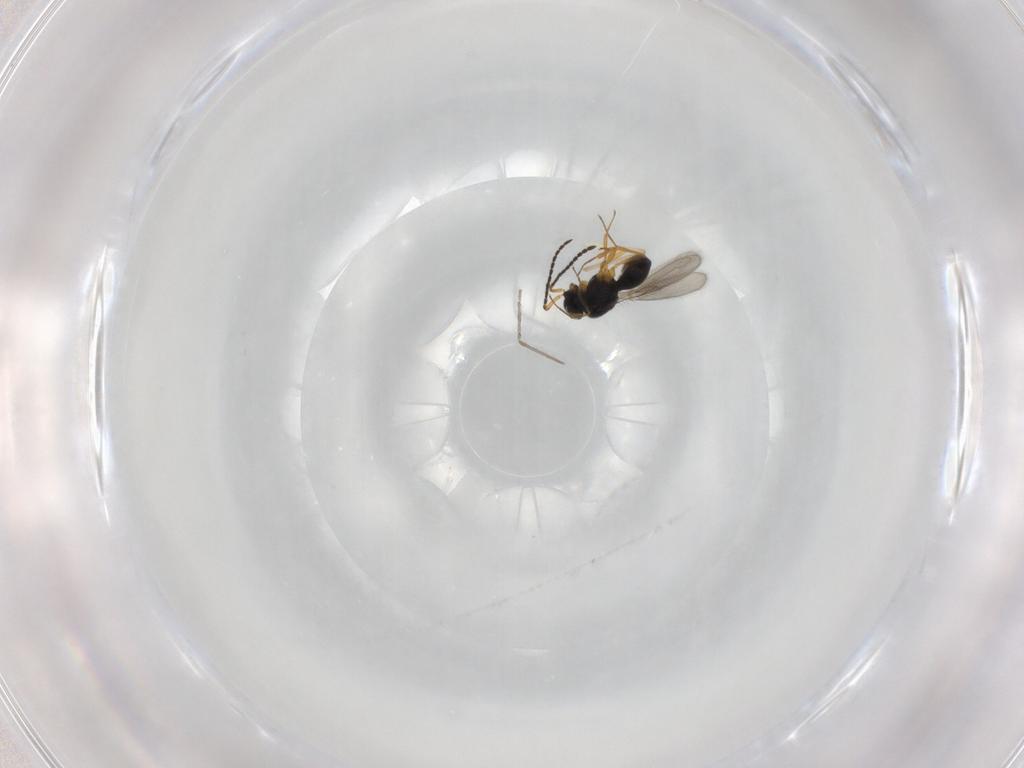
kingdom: Animalia
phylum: Arthropoda
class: Insecta
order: Hymenoptera
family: Scelionidae
